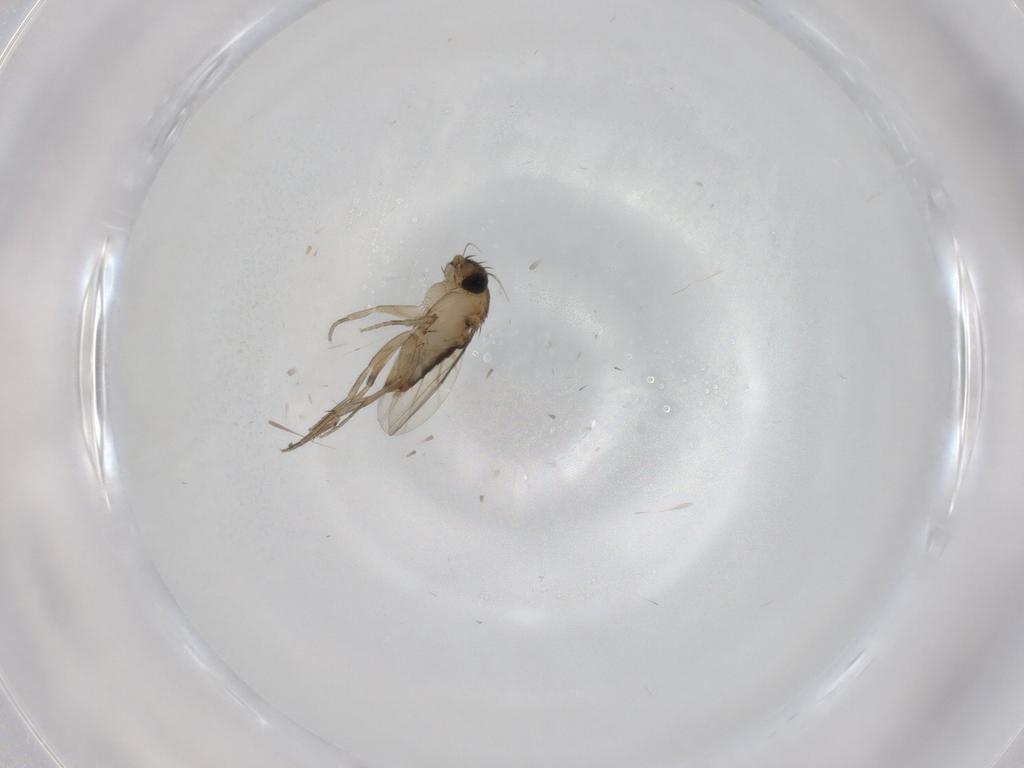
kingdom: Animalia
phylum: Arthropoda
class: Insecta
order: Diptera
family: Phoridae
